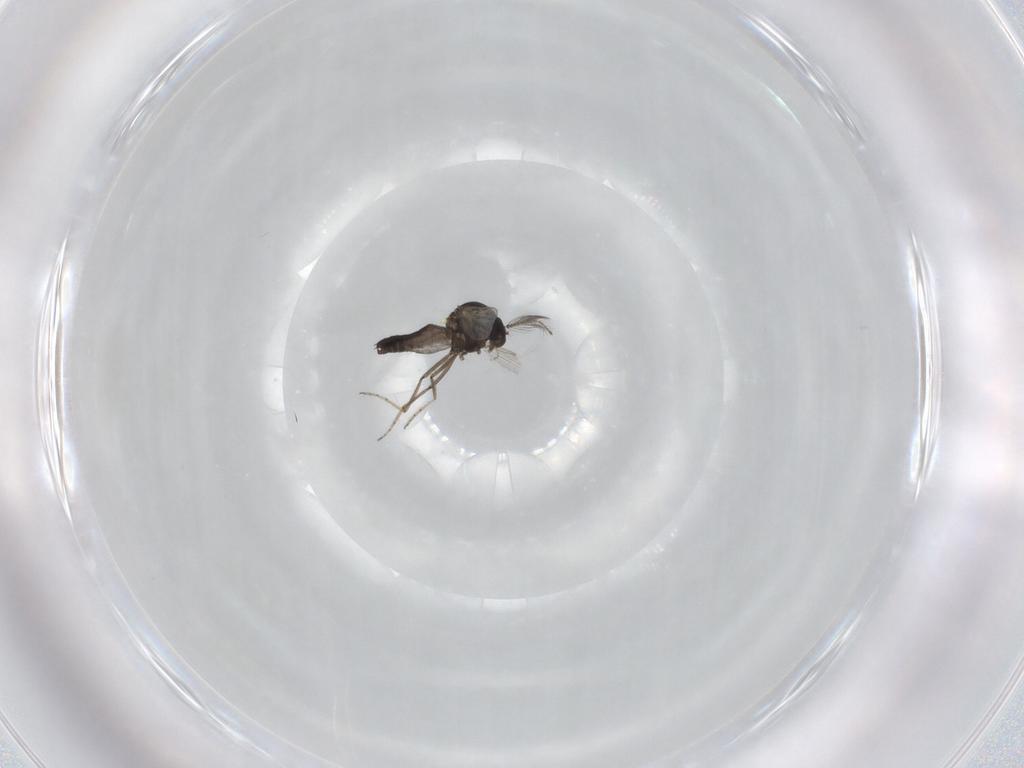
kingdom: Animalia
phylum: Arthropoda
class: Insecta
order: Diptera
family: Ceratopogonidae
